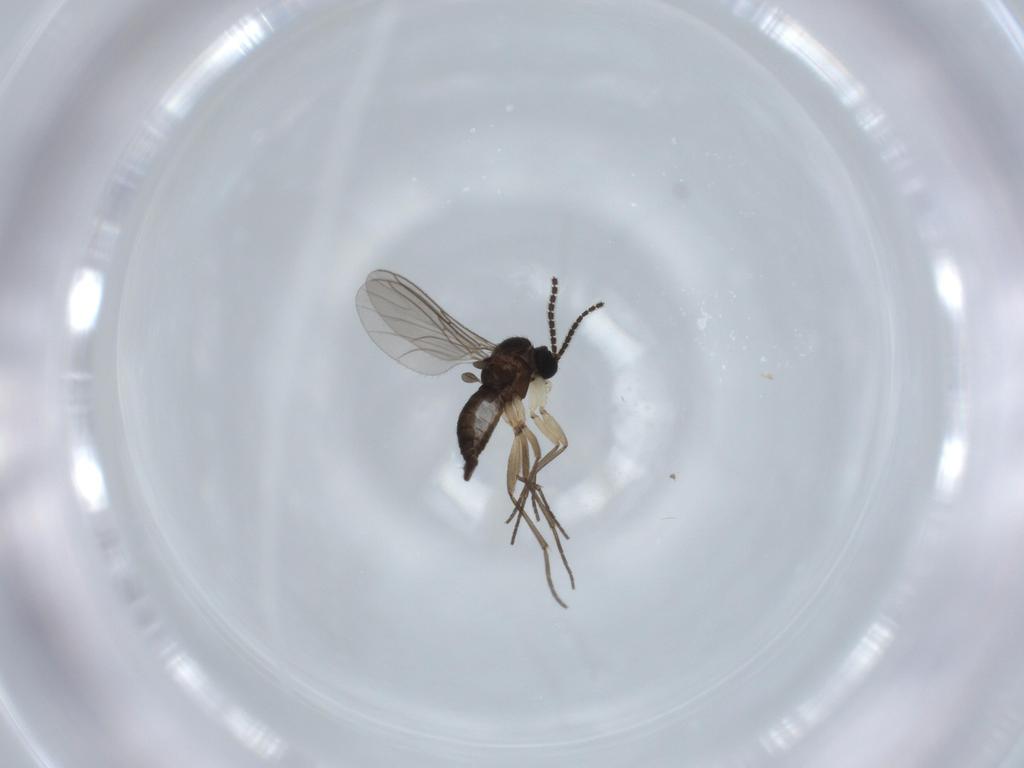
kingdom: Animalia
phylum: Arthropoda
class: Insecta
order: Diptera
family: Sciaridae
